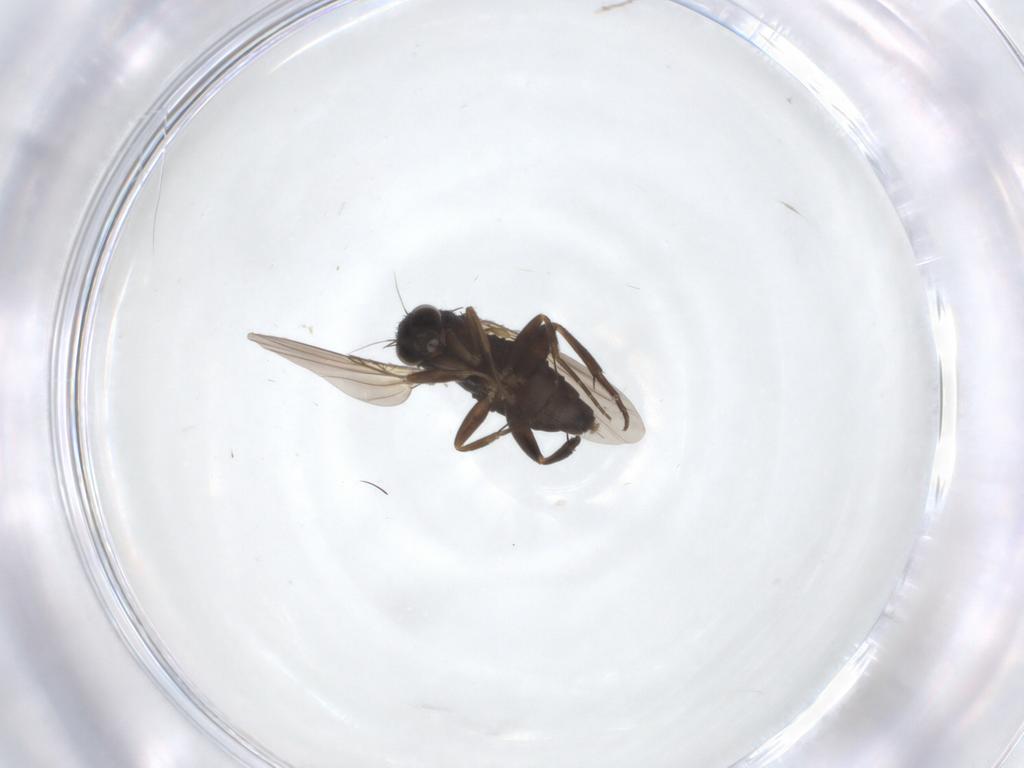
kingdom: Animalia
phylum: Arthropoda
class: Insecta
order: Diptera
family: Phoridae
